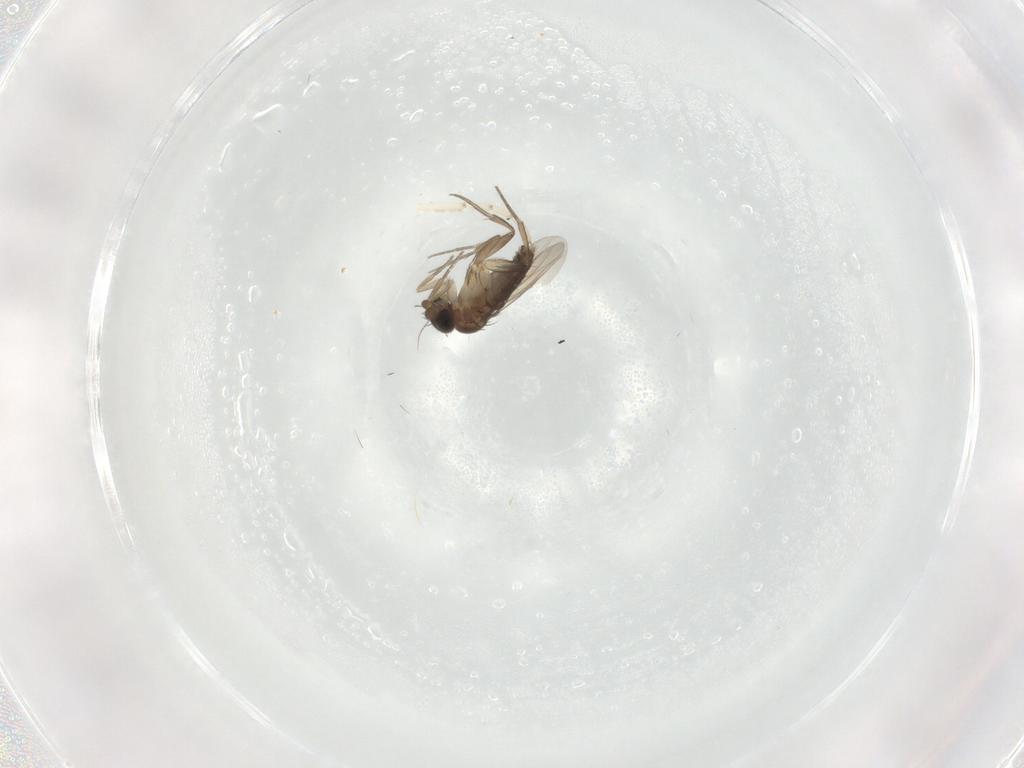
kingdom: Animalia
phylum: Arthropoda
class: Insecta
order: Diptera
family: Phoridae
